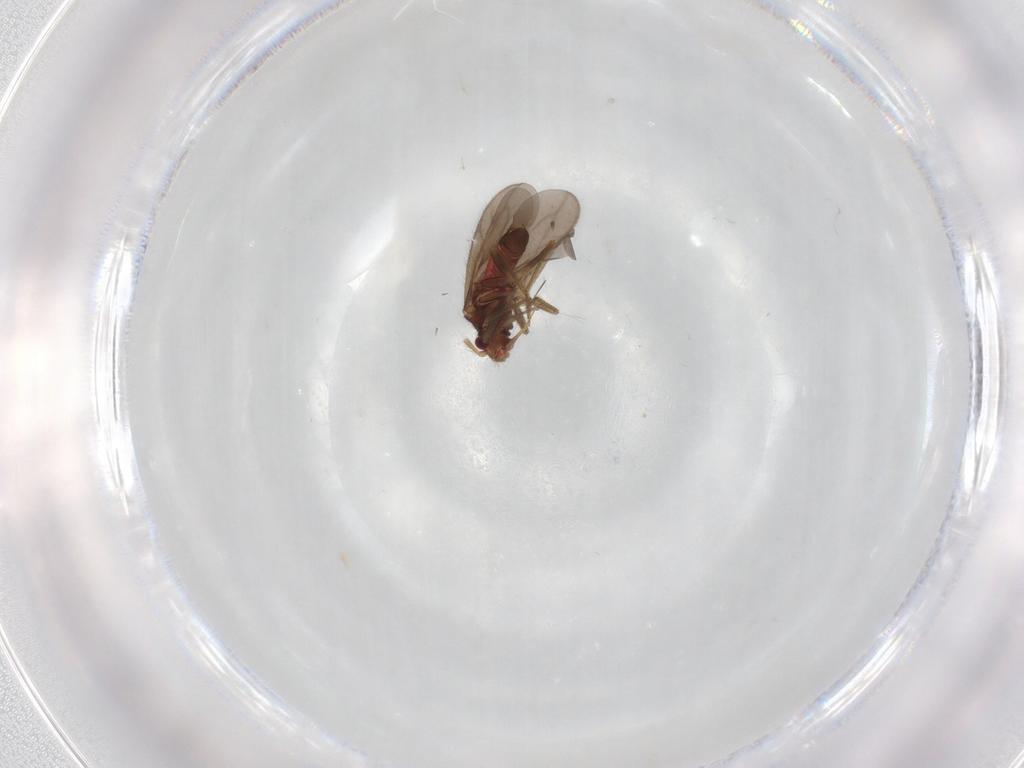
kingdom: Animalia
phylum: Arthropoda
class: Insecta
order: Hemiptera
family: Ceratocombidae
